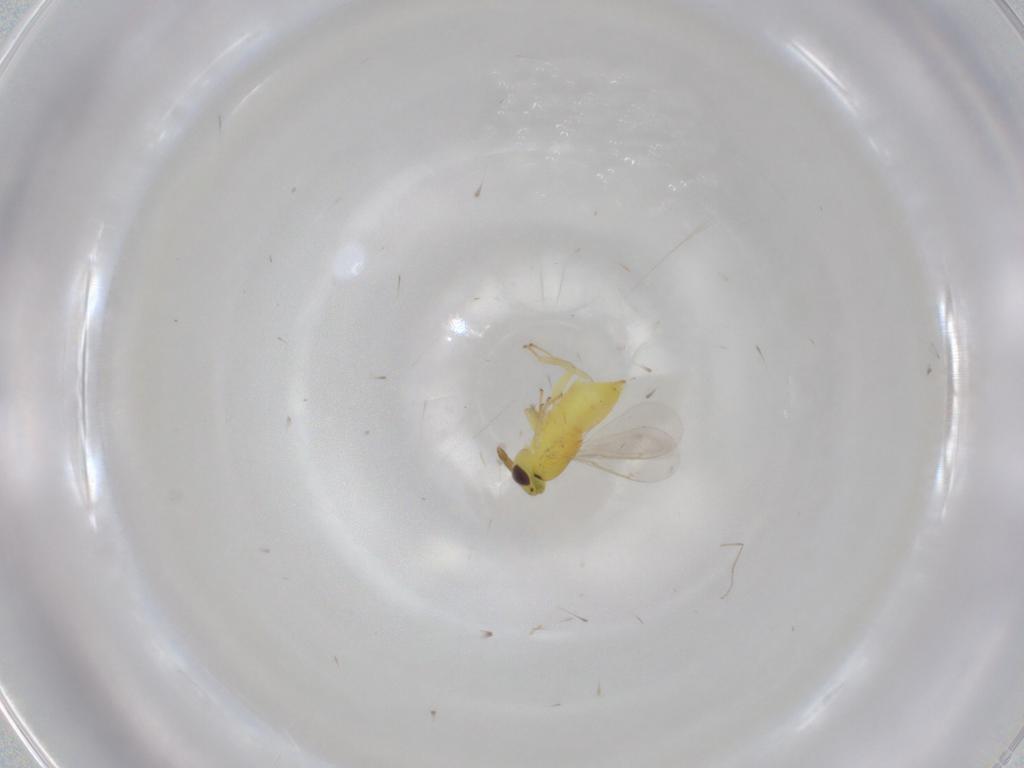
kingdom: Animalia
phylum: Arthropoda
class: Insecta
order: Hymenoptera
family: Aphelinidae
